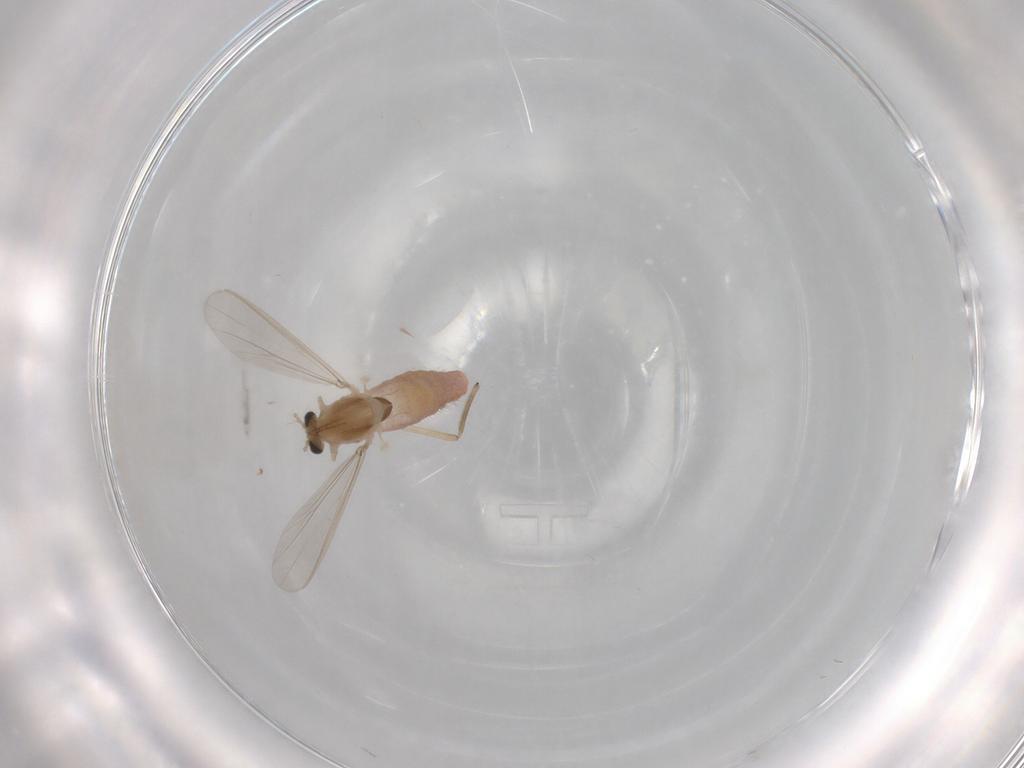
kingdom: Animalia
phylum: Arthropoda
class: Insecta
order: Diptera
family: Chironomidae
